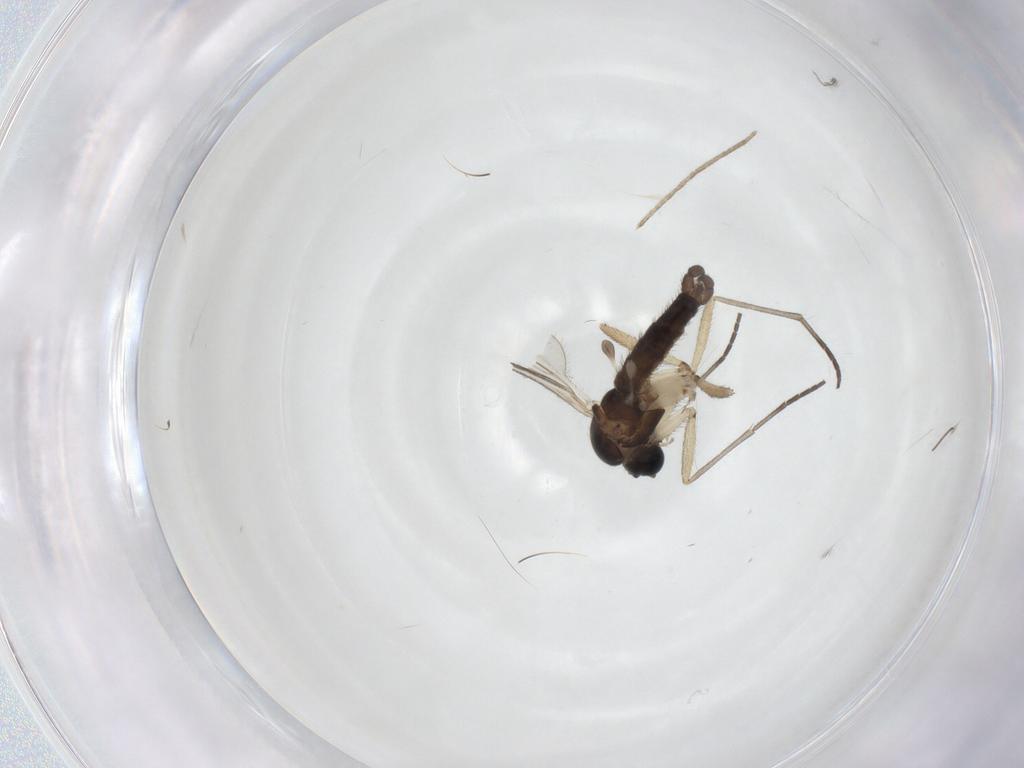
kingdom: Animalia
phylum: Arthropoda
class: Insecta
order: Diptera
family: Sciaridae
